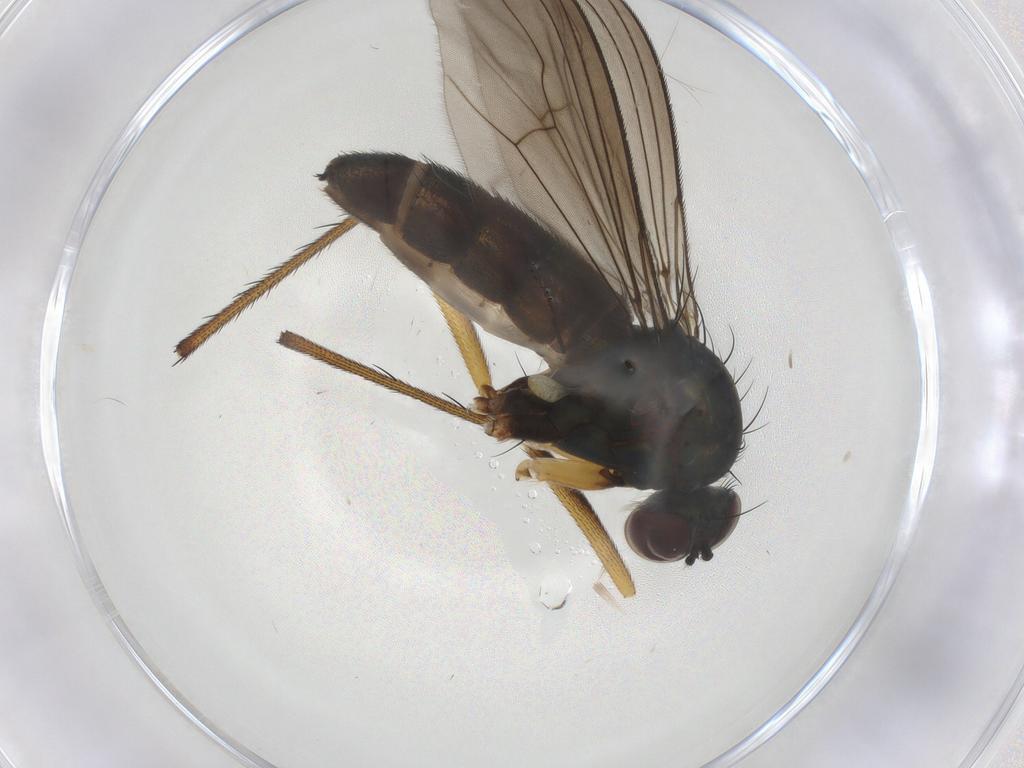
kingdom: Animalia
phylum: Arthropoda
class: Insecta
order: Diptera
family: Dolichopodidae
